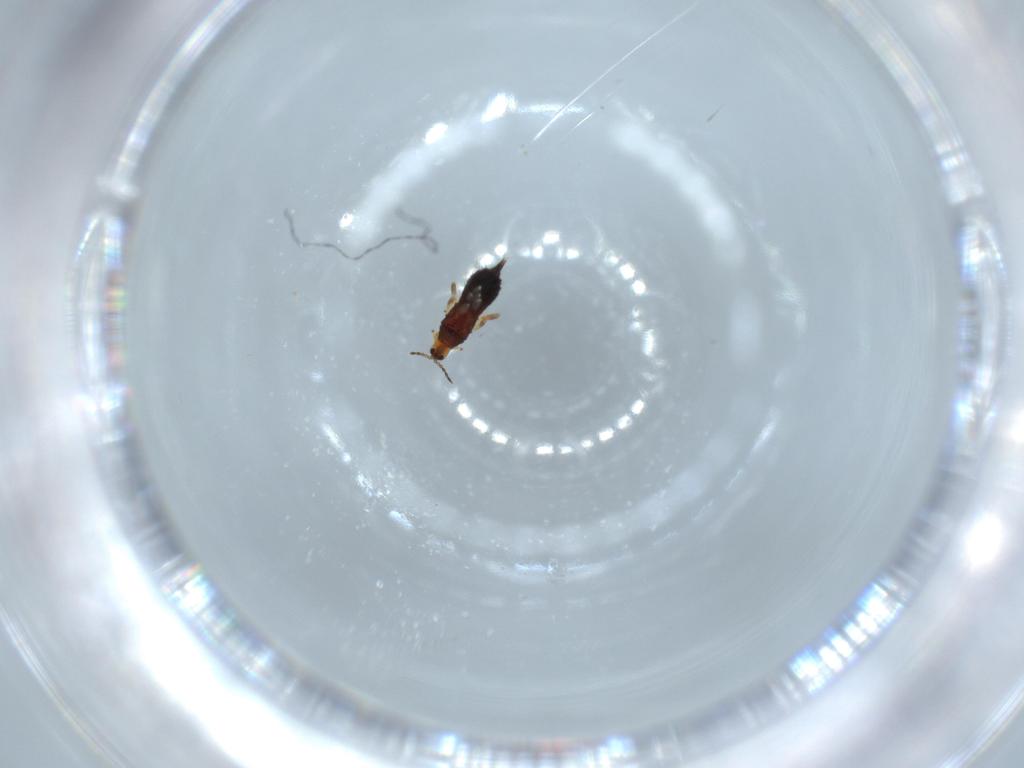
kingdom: Animalia
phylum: Arthropoda
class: Insecta
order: Thysanoptera
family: Phlaeothripidae
